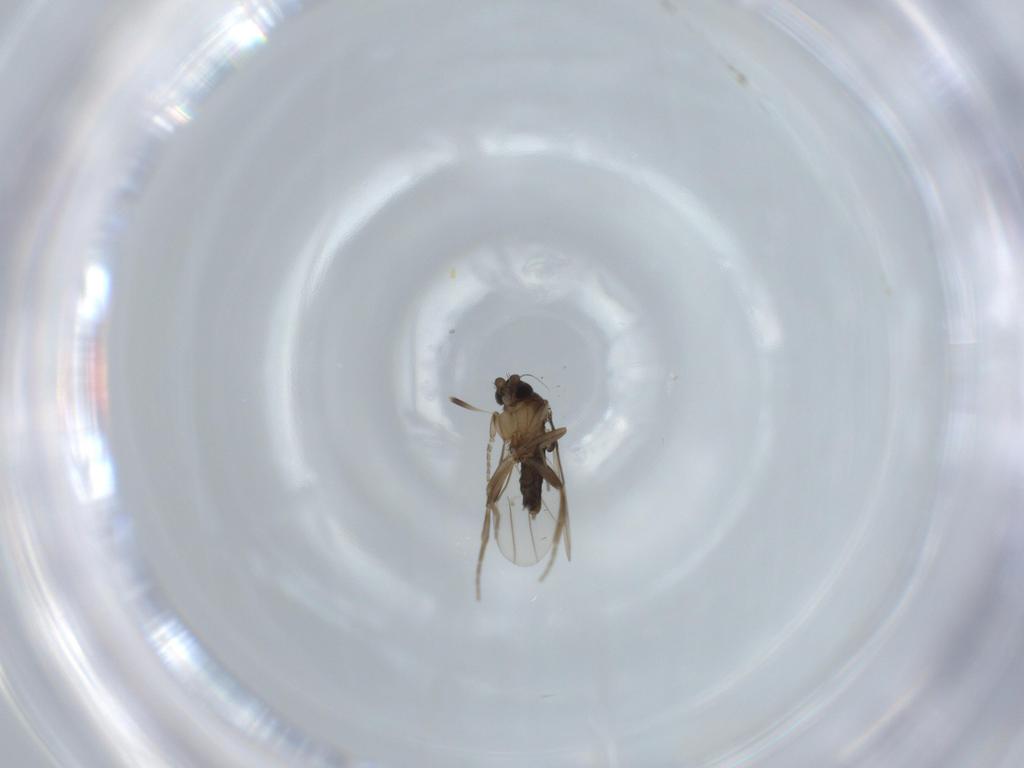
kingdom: Animalia
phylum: Arthropoda
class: Insecta
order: Diptera
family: Phoridae
